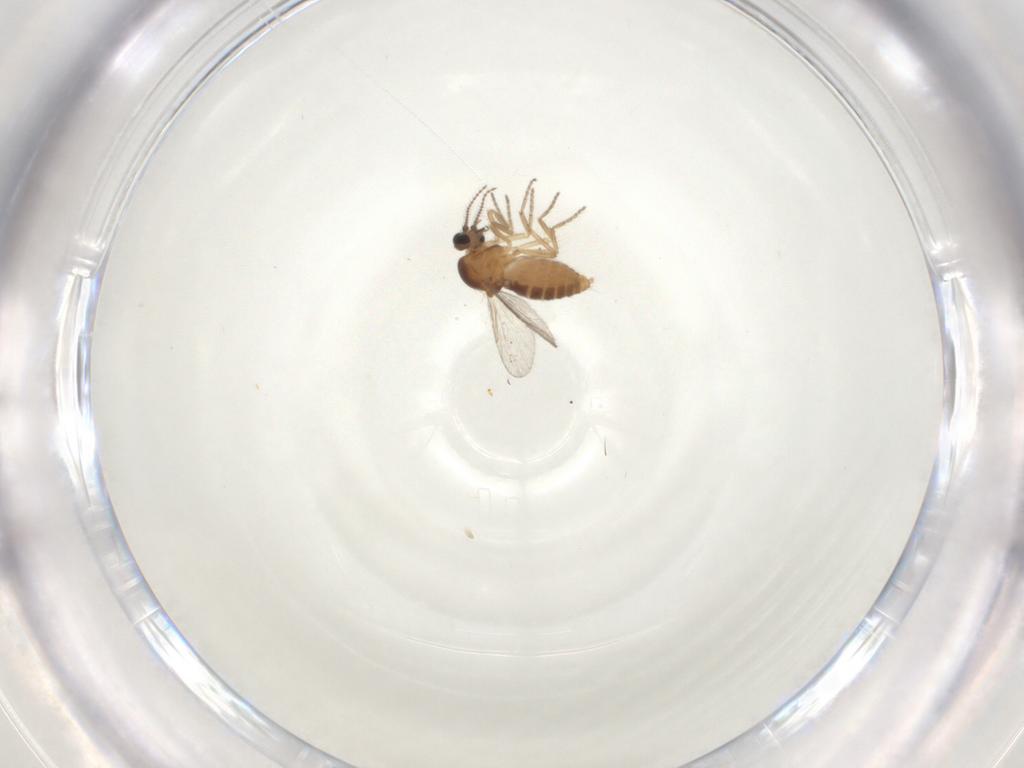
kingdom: Animalia
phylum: Arthropoda
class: Insecta
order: Diptera
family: Ceratopogonidae
